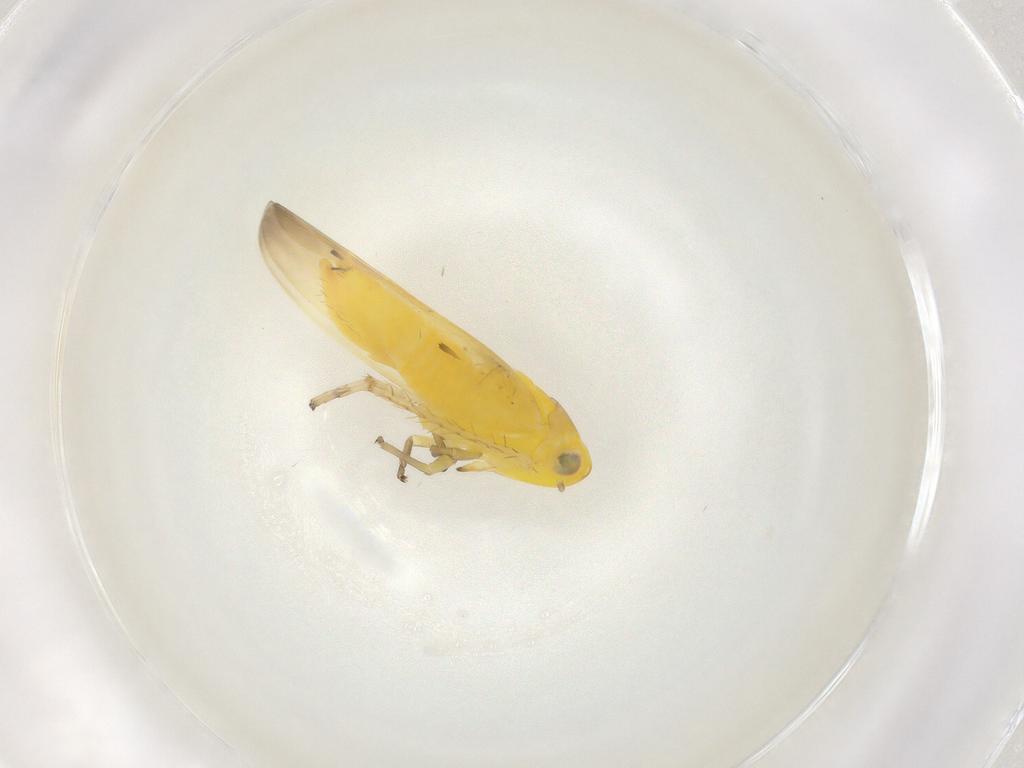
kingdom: Animalia
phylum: Arthropoda
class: Insecta
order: Hemiptera
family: Cicadellidae
